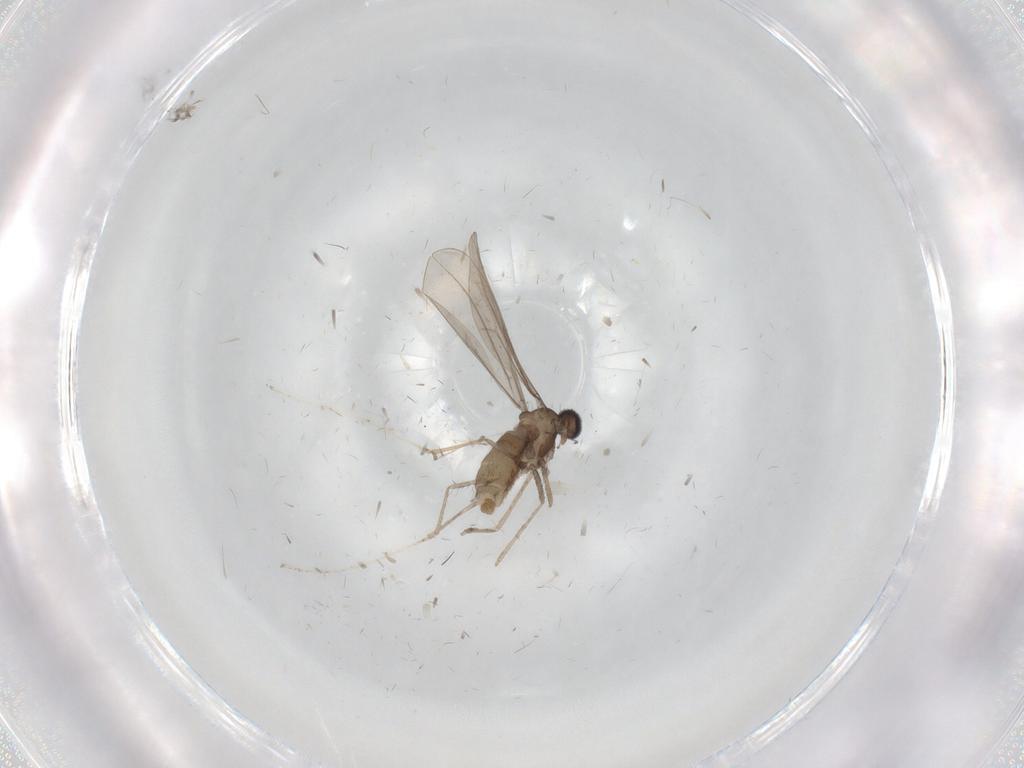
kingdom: Animalia
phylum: Arthropoda
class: Insecta
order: Diptera
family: Cecidomyiidae
